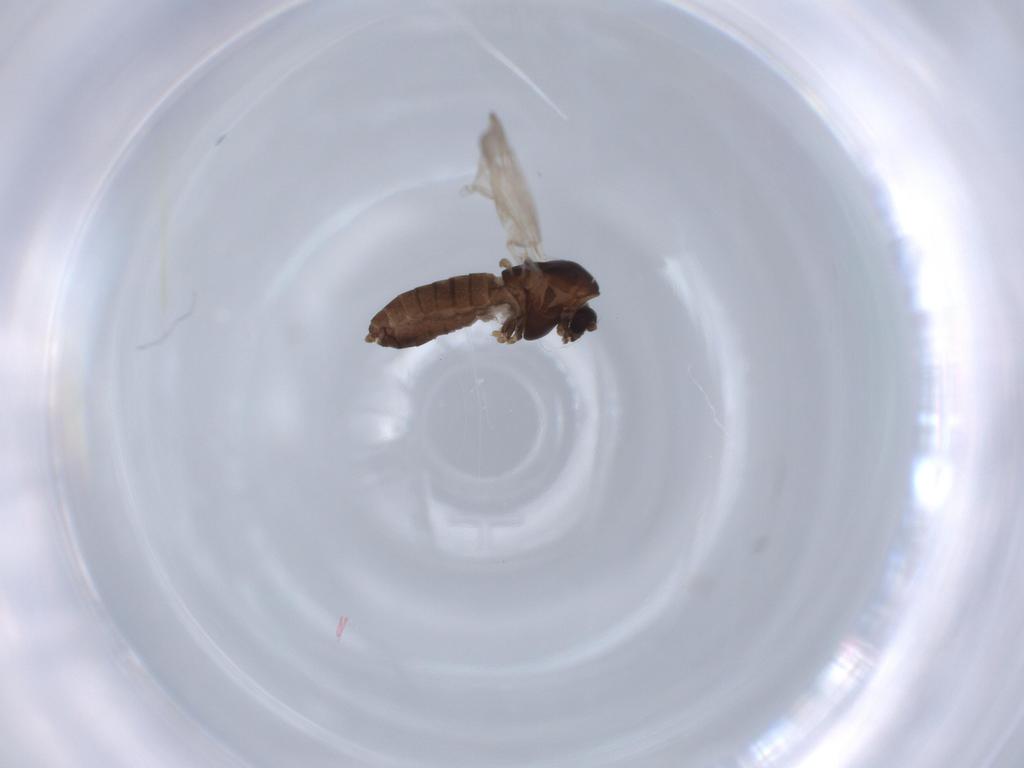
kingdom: Animalia
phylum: Arthropoda
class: Insecta
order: Diptera
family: Chironomidae
